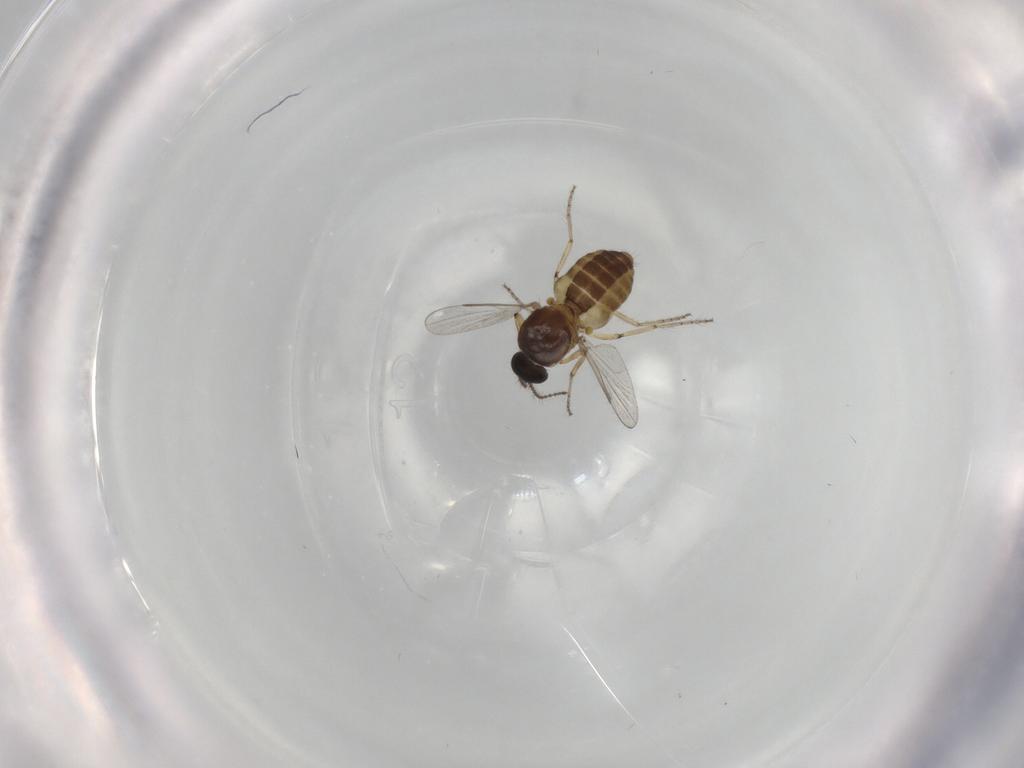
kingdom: Animalia
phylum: Arthropoda
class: Insecta
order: Diptera
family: Ceratopogonidae
